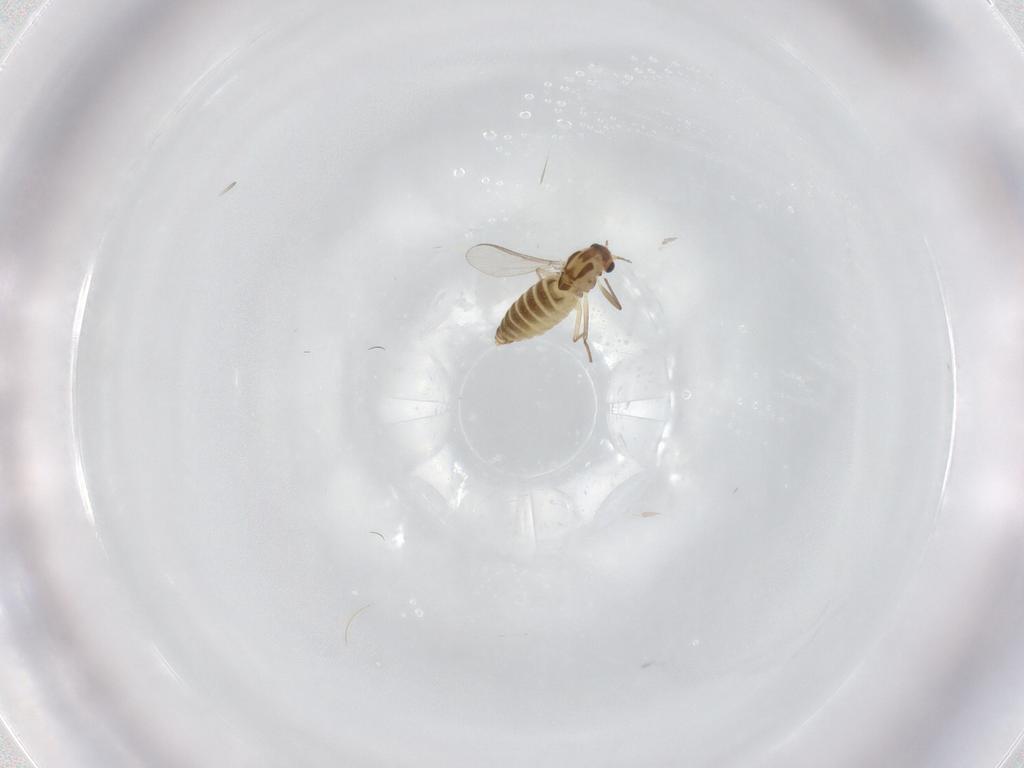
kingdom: Animalia
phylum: Arthropoda
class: Insecta
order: Diptera
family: Chironomidae
